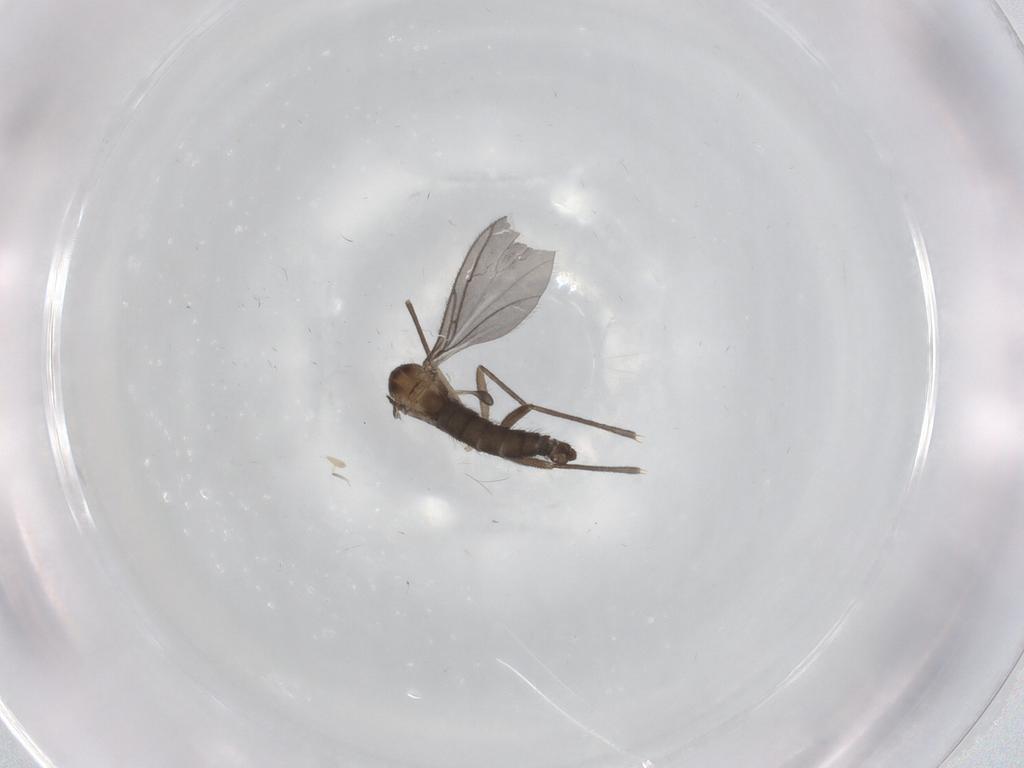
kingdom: Animalia
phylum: Arthropoda
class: Insecta
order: Diptera
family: Sciaridae
